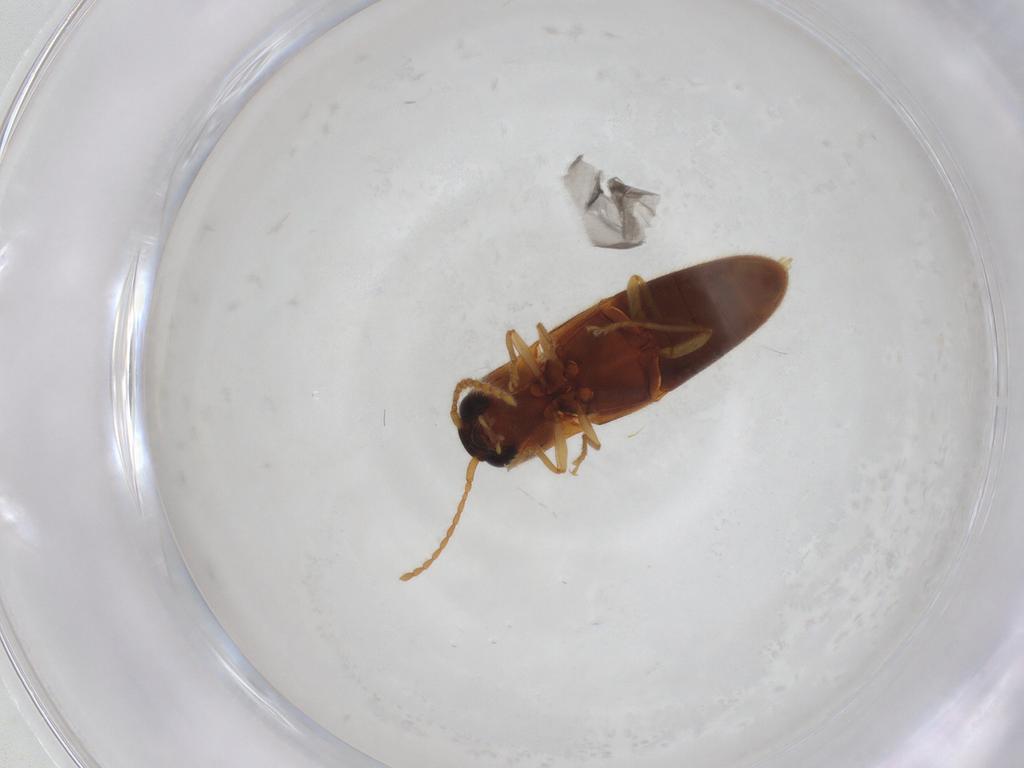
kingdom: Animalia
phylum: Arthropoda
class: Insecta
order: Coleoptera
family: Elateridae
